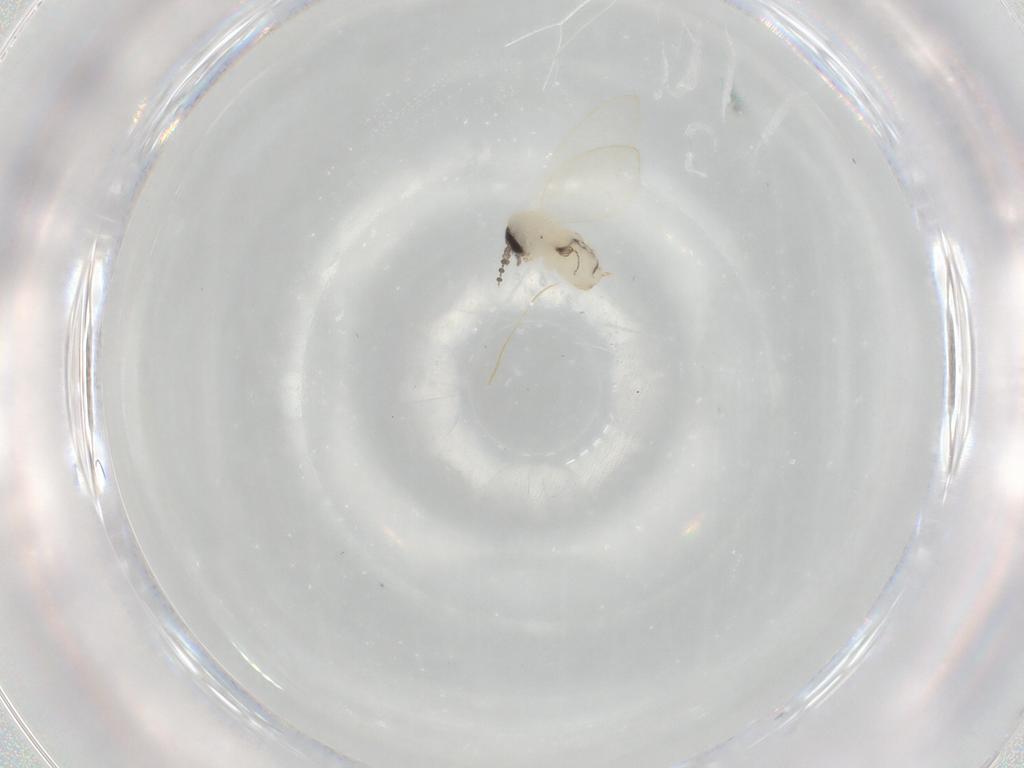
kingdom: Animalia
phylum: Arthropoda
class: Insecta
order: Diptera
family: Psychodidae
